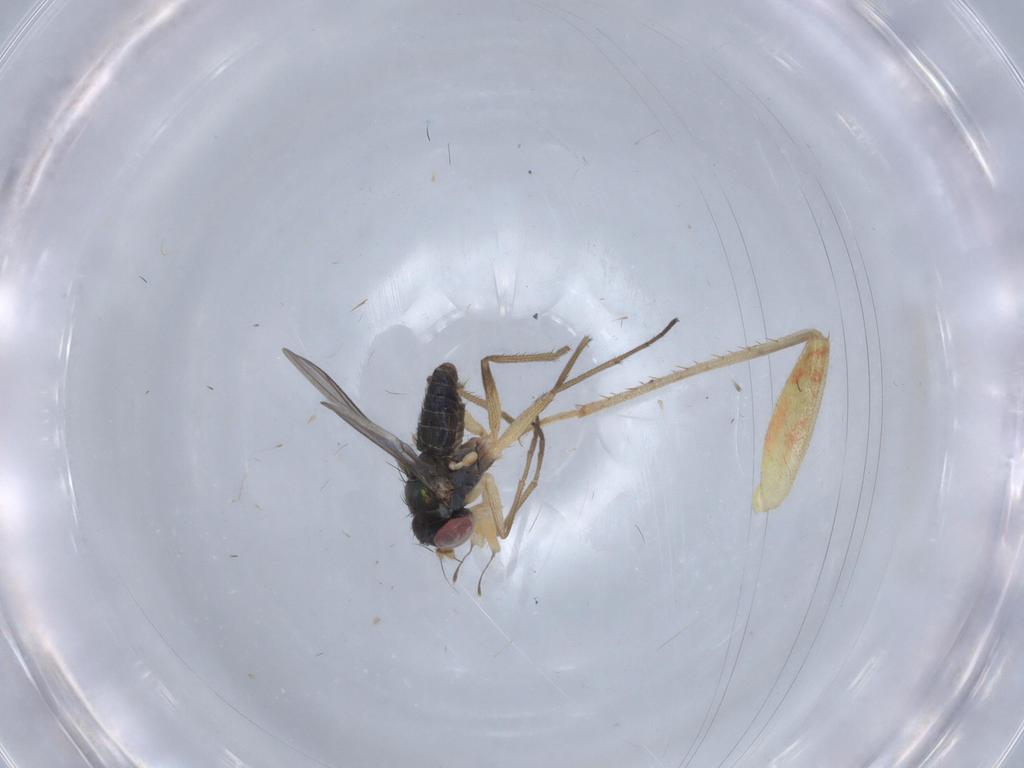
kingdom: Animalia
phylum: Arthropoda
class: Insecta
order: Diptera
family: Dolichopodidae
